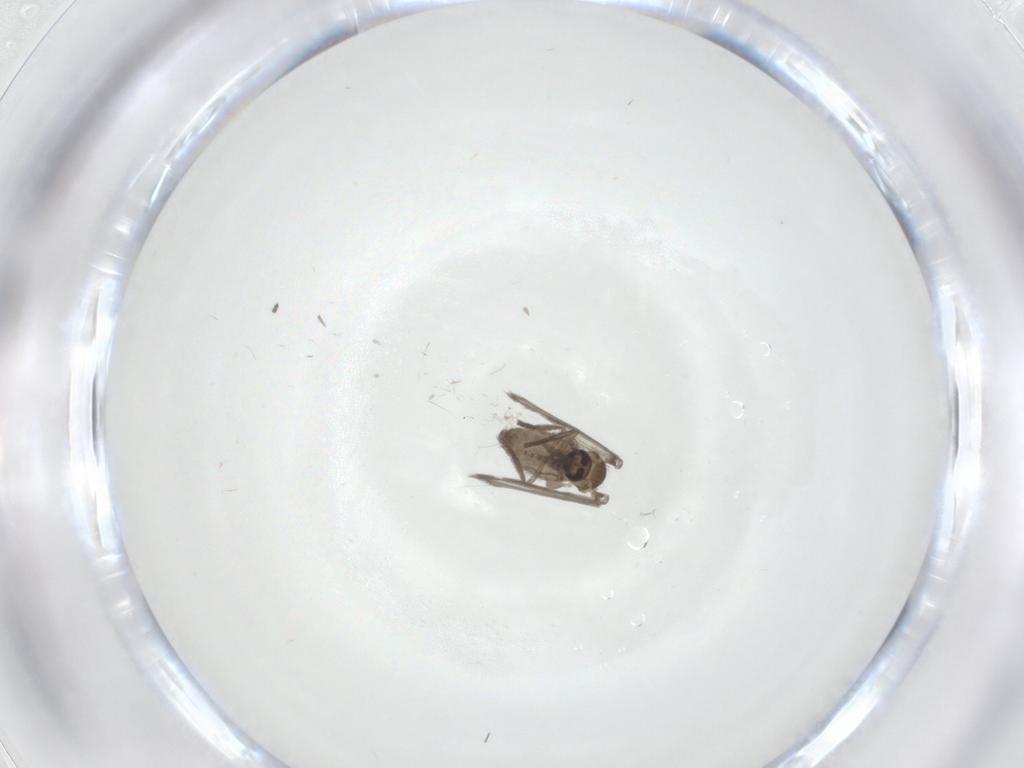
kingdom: Animalia
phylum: Arthropoda
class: Insecta
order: Diptera
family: Psychodidae
